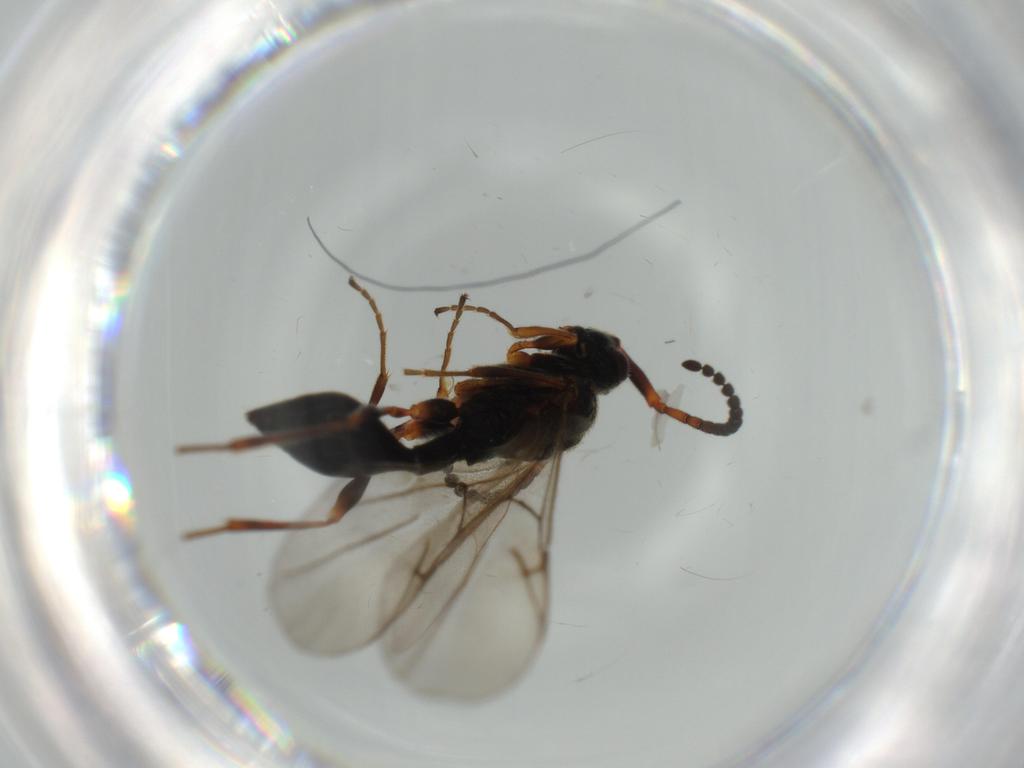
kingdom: Animalia
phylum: Arthropoda
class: Insecta
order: Hymenoptera
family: Diapriidae
